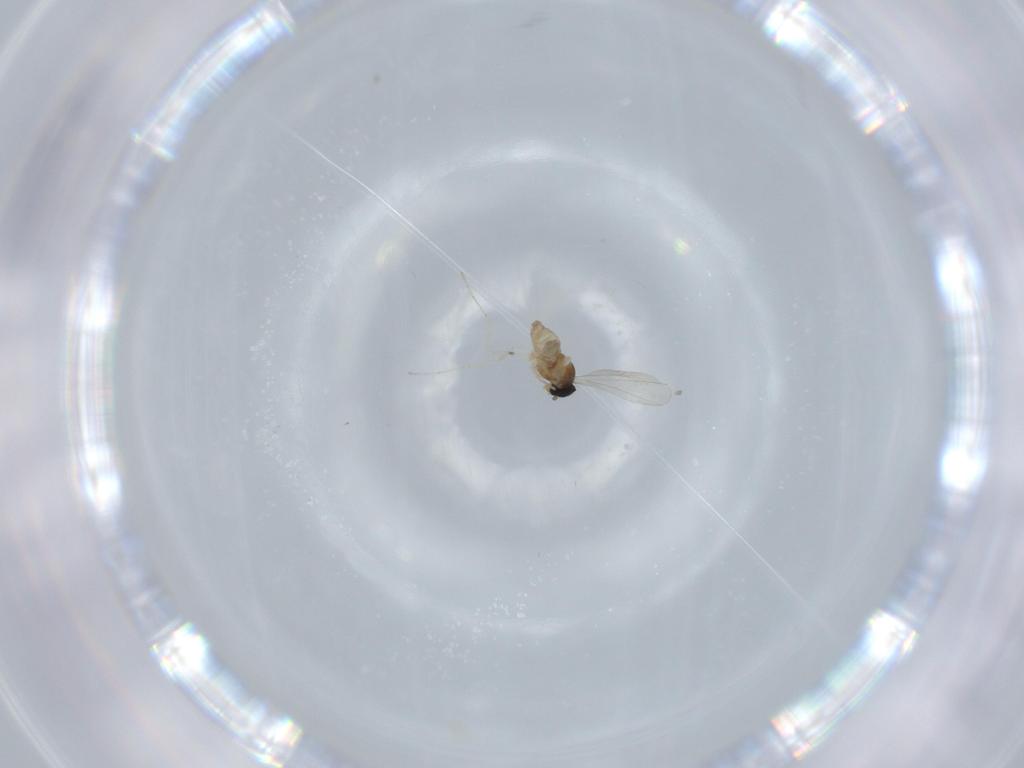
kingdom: Animalia
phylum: Arthropoda
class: Insecta
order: Diptera
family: Cecidomyiidae
